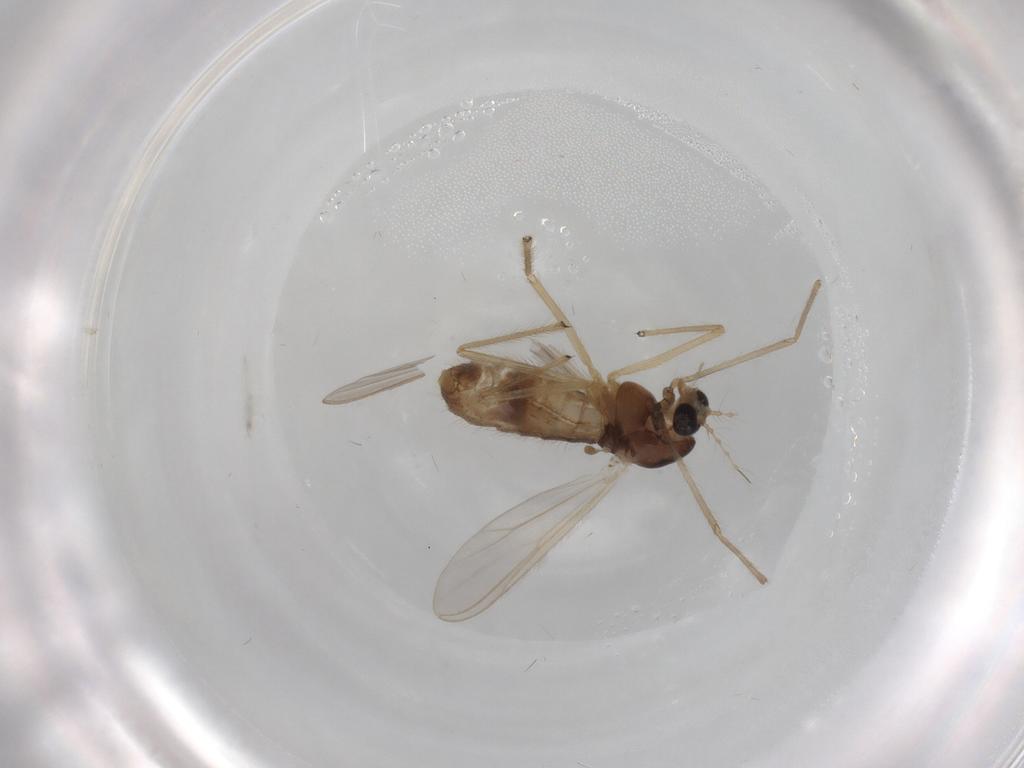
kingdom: Animalia
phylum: Arthropoda
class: Insecta
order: Diptera
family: Chironomidae
